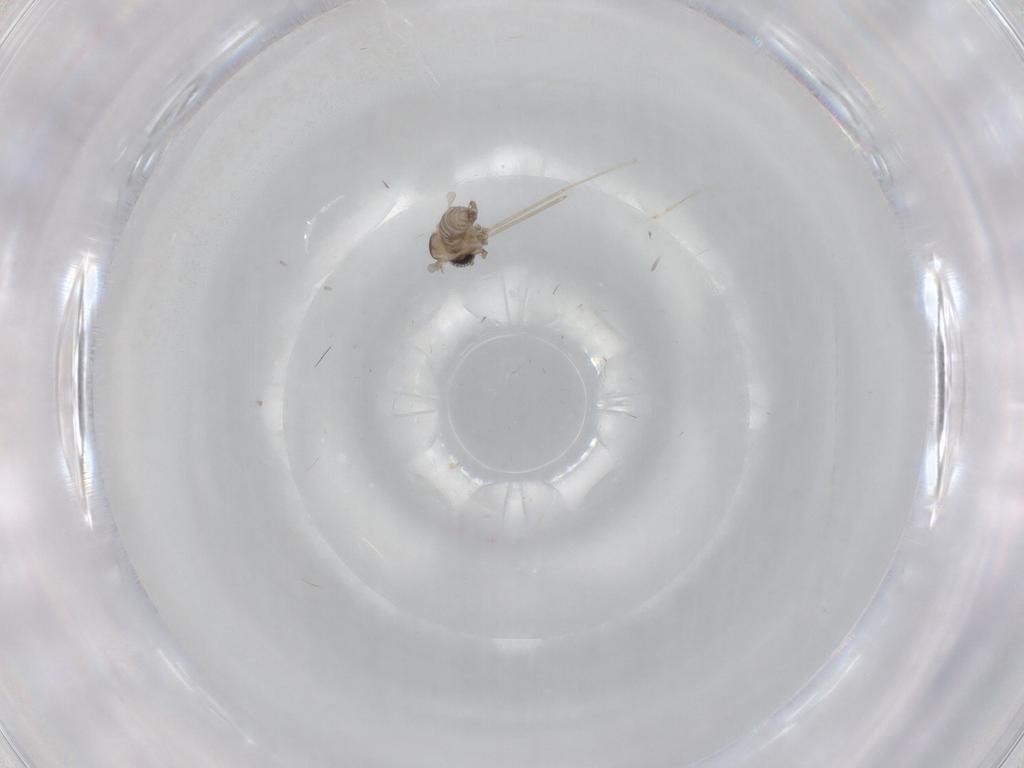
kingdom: Animalia
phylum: Arthropoda
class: Insecta
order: Diptera
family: Cecidomyiidae
